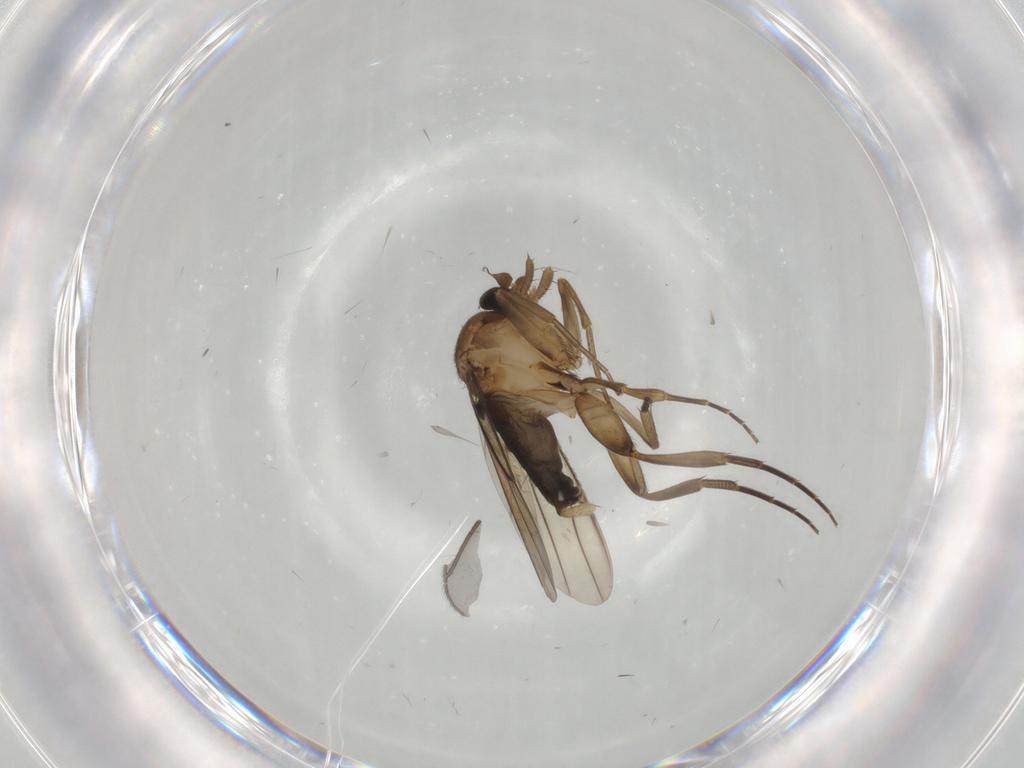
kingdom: Animalia
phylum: Arthropoda
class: Insecta
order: Diptera
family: Phoridae
